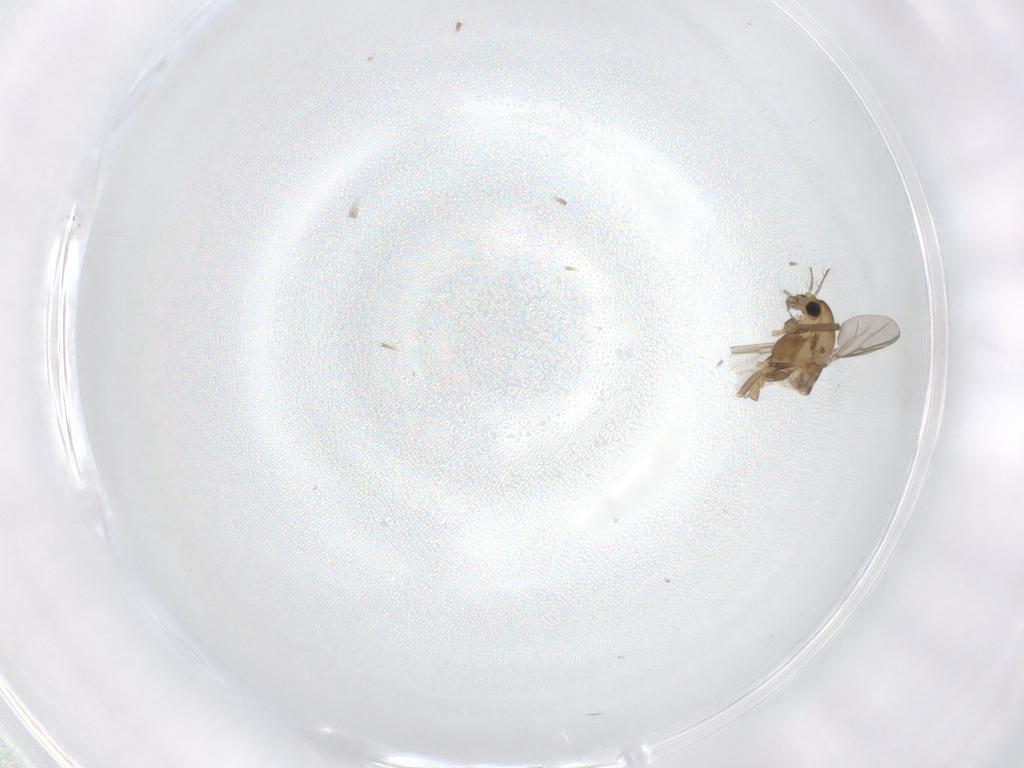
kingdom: Animalia
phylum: Arthropoda
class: Insecta
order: Diptera
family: Chironomidae
